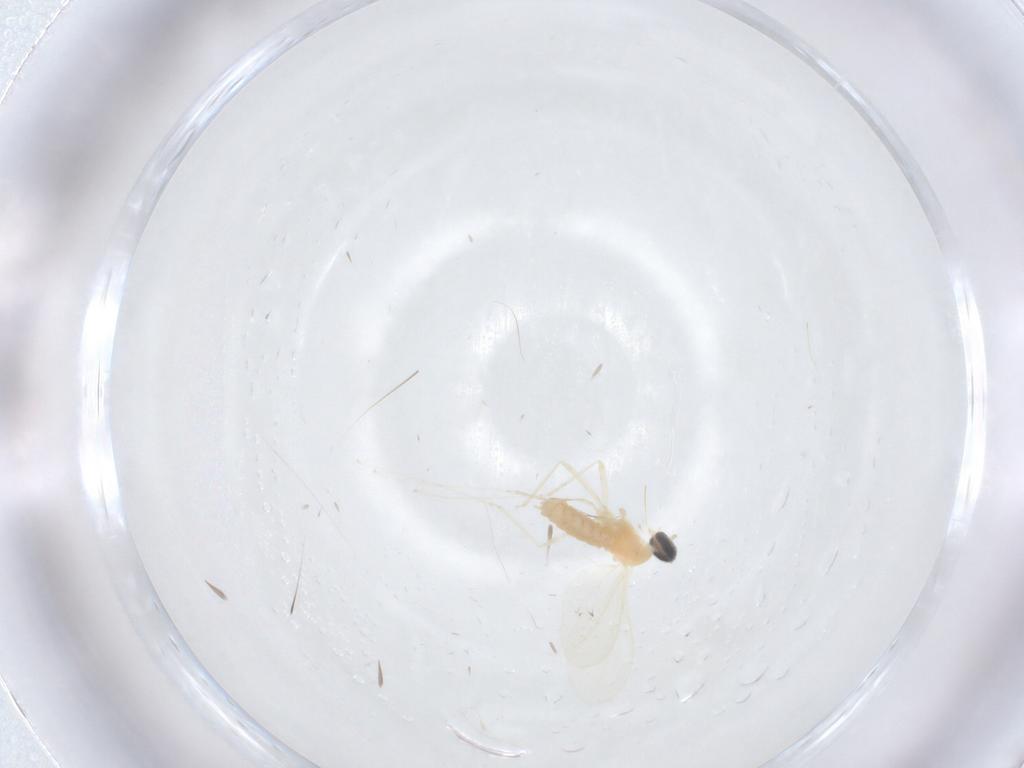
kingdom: Animalia
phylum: Arthropoda
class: Insecta
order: Diptera
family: Cecidomyiidae
